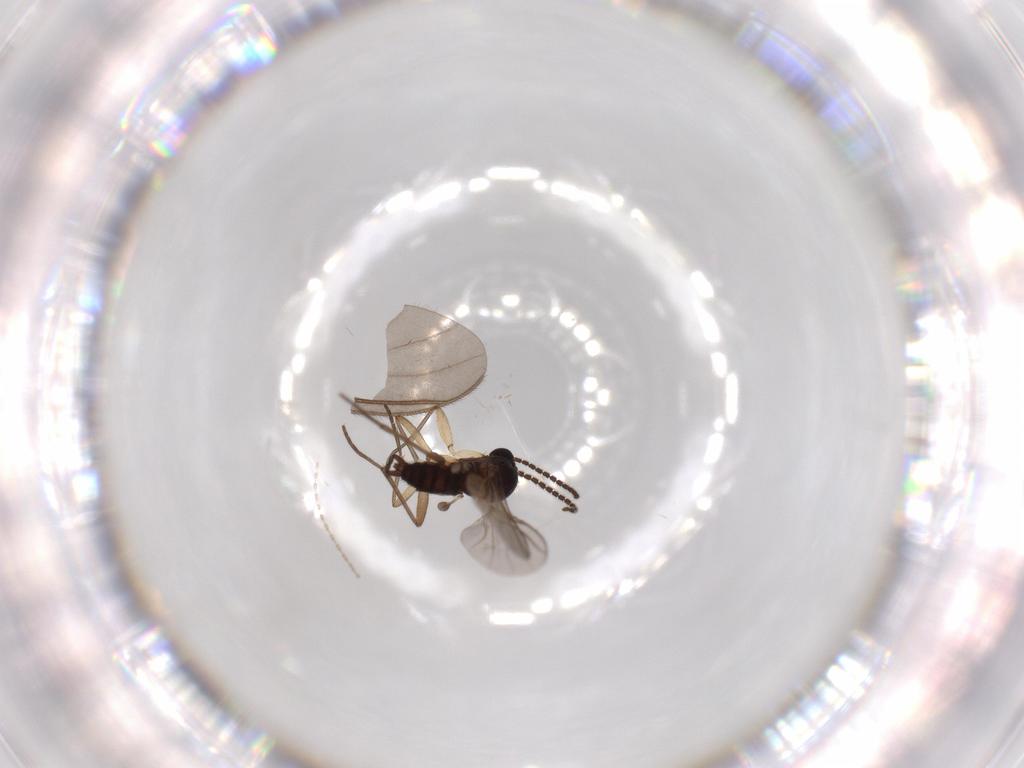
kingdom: Animalia
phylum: Arthropoda
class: Insecta
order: Diptera
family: Sciaridae
